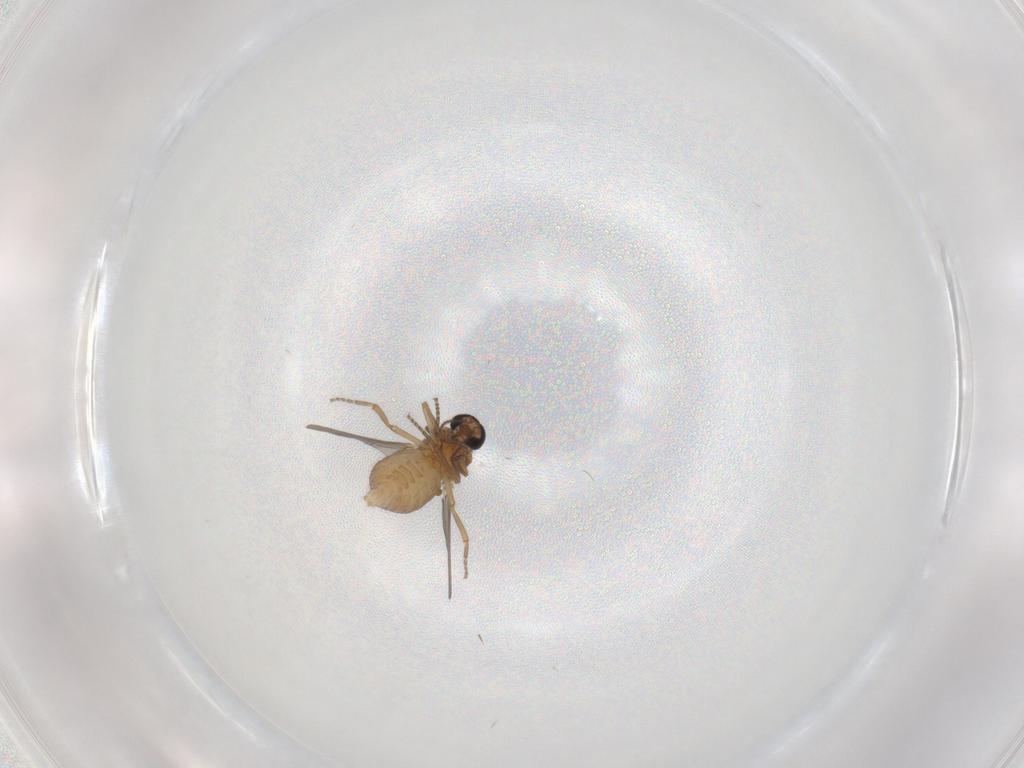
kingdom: Animalia
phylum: Arthropoda
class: Insecta
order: Diptera
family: Ceratopogonidae
